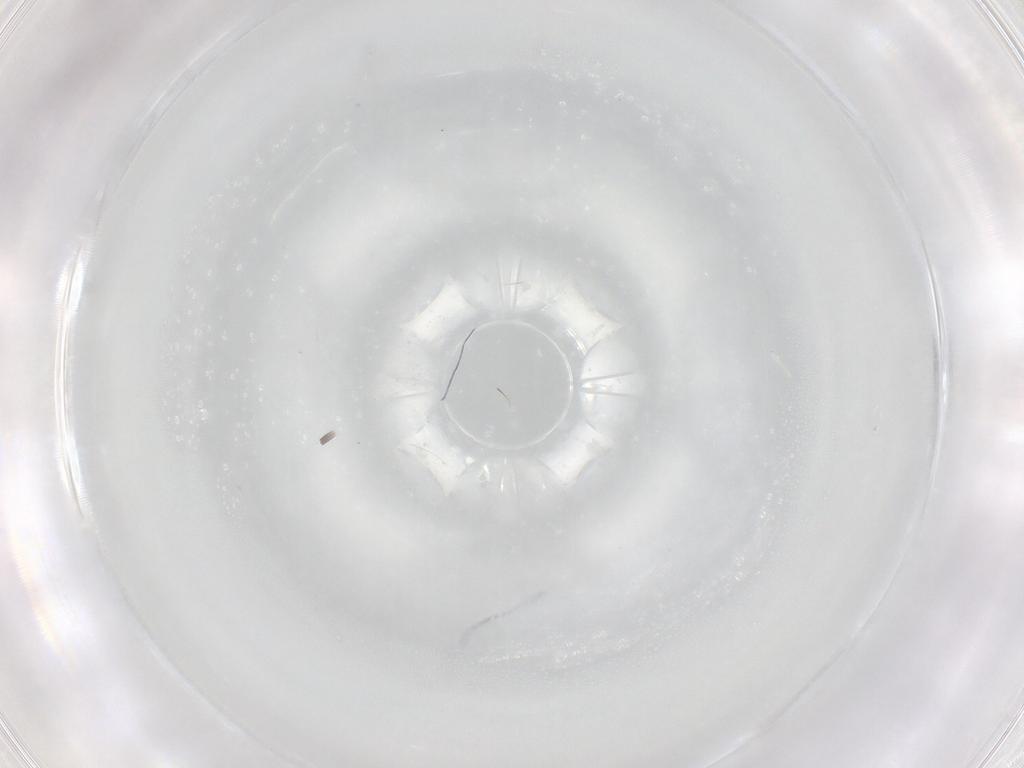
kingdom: Animalia
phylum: Arthropoda
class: Insecta
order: Diptera
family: Cecidomyiidae
